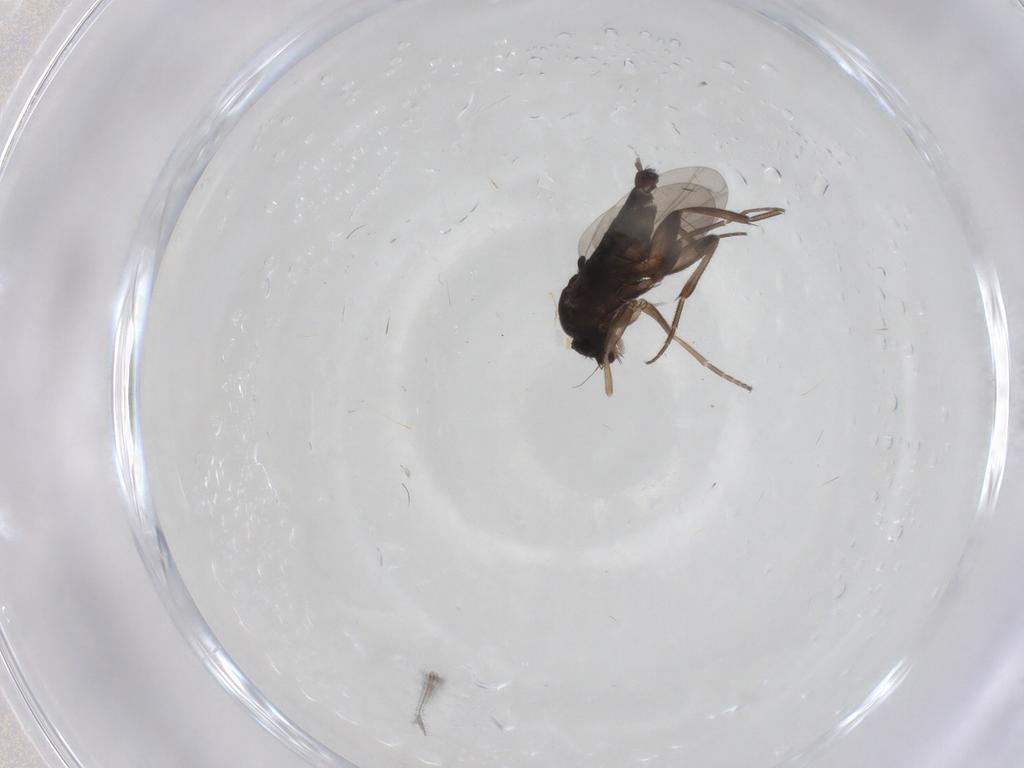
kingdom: Animalia
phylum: Arthropoda
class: Insecta
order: Diptera
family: Phoridae
